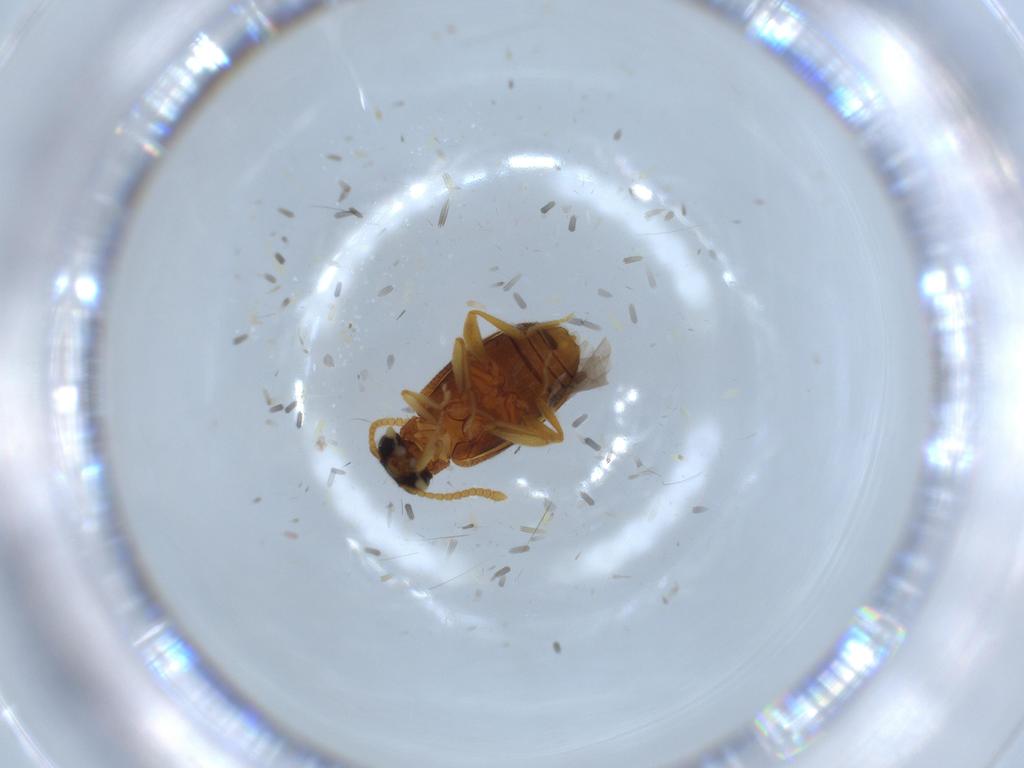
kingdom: Animalia
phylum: Arthropoda
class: Insecta
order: Coleoptera
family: Aderidae
